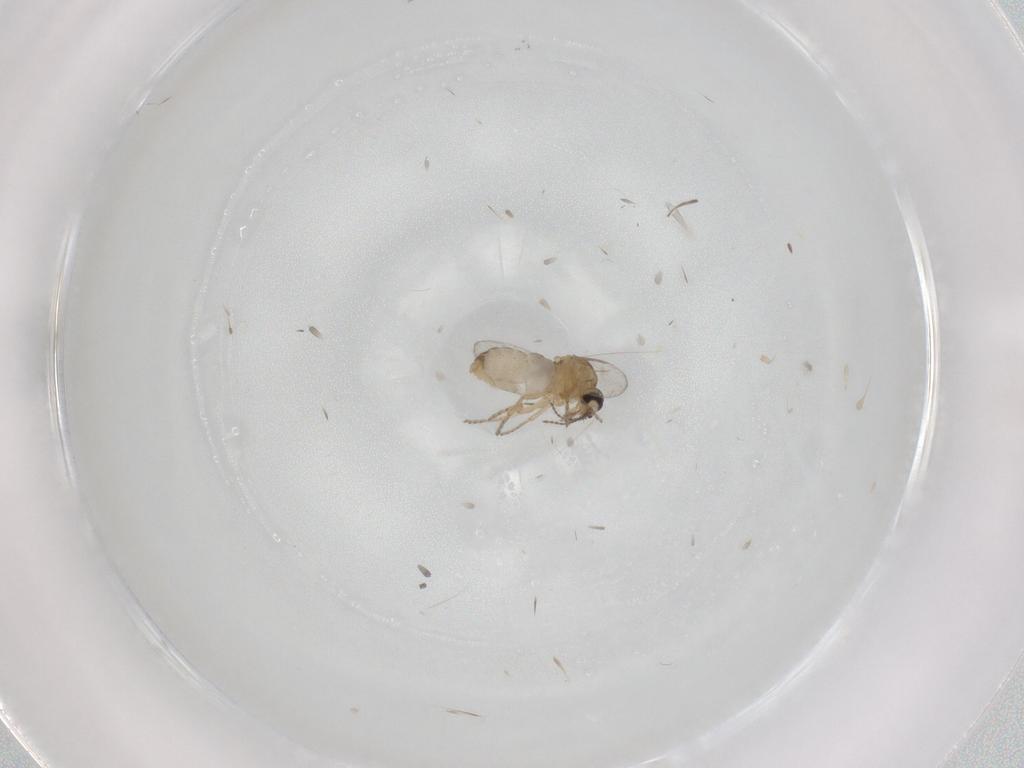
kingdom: Animalia
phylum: Arthropoda
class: Insecta
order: Diptera
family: Ceratopogonidae
